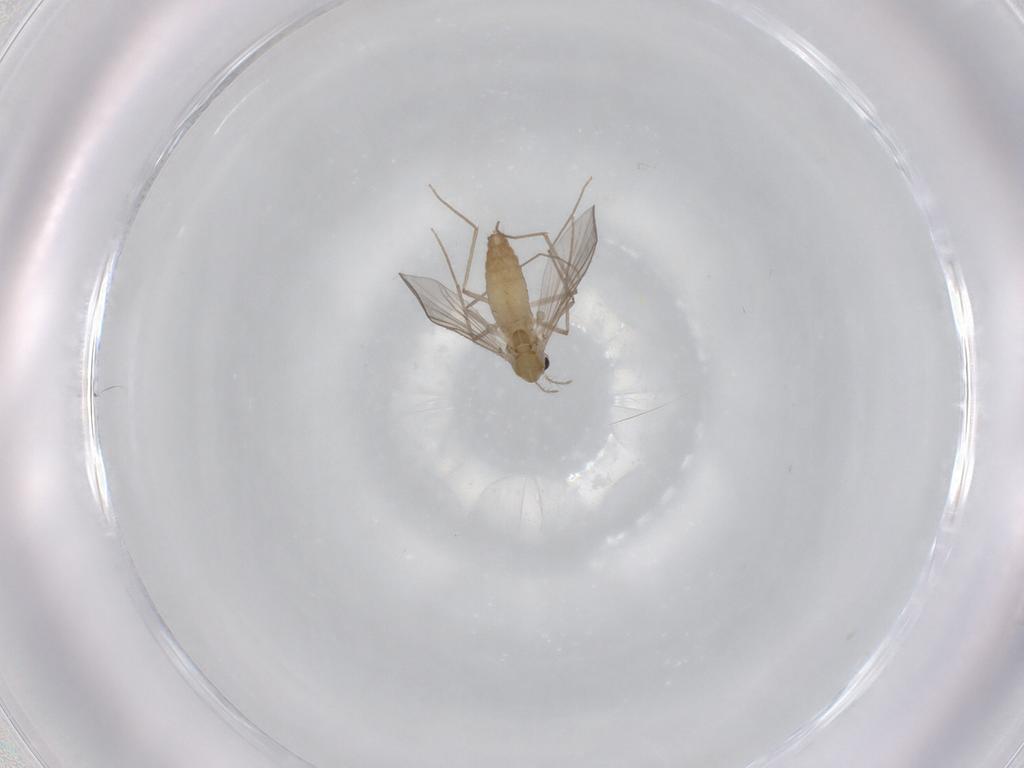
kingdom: Animalia
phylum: Arthropoda
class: Insecta
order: Diptera
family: Chironomidae
